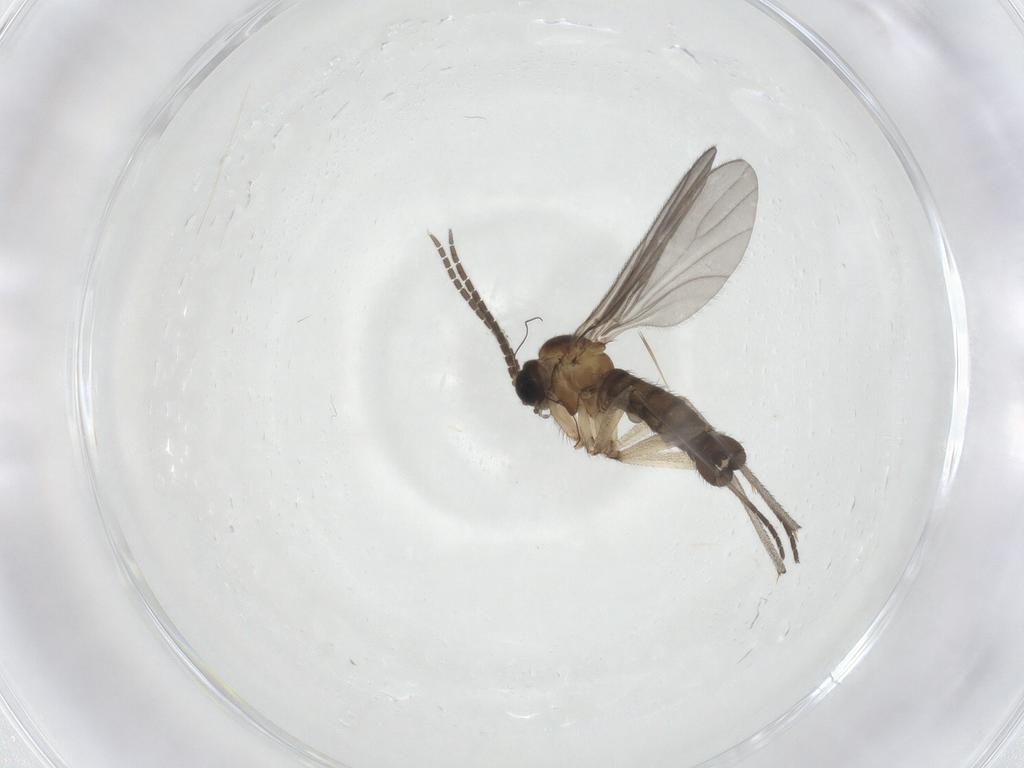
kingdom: Animalia
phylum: Arthropoda
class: Insecta
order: Diptera
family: Sciaridae
